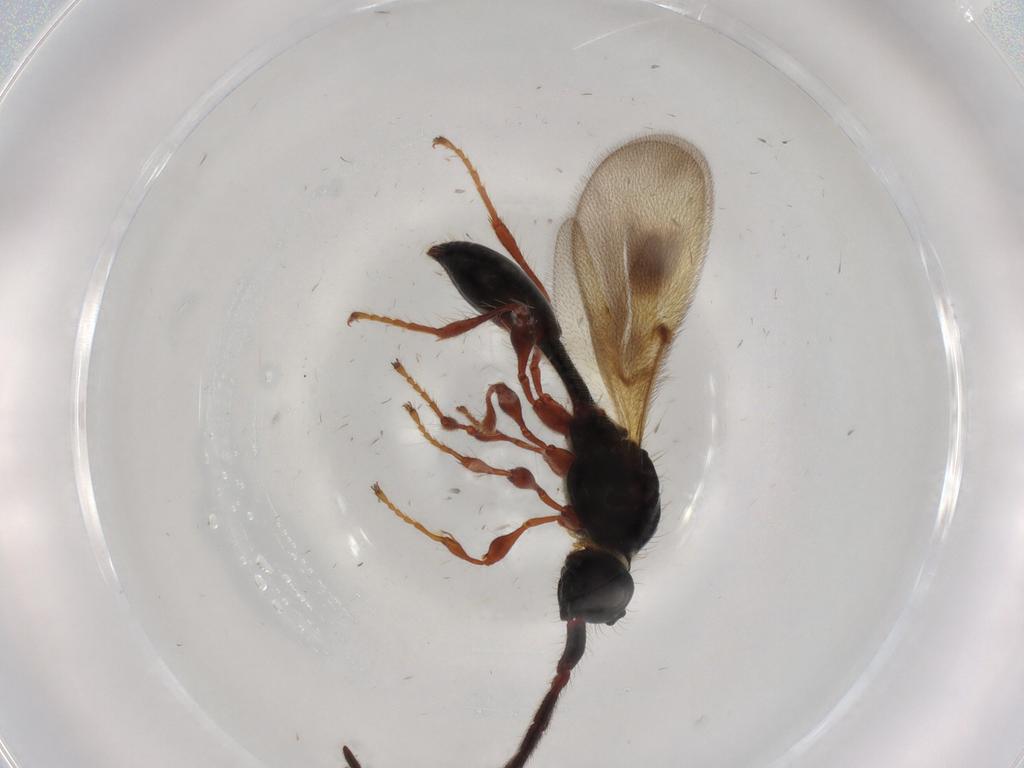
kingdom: Animalia
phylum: Arthropoda
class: Insecta
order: Hymenoptera
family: Diapriidae
